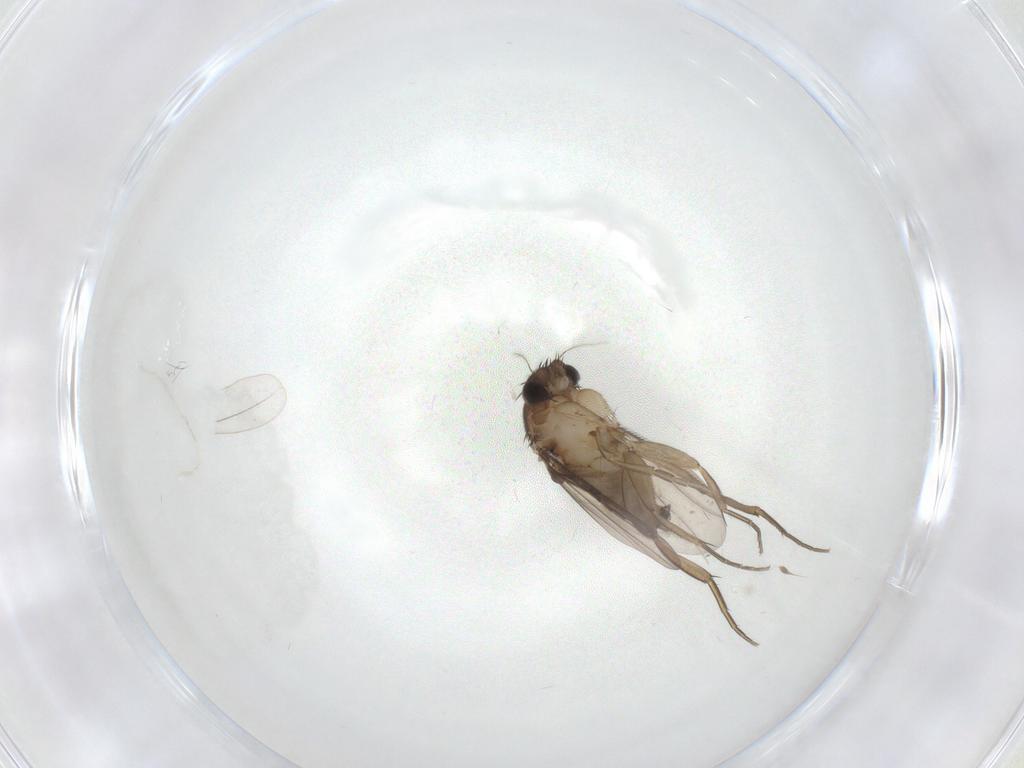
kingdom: Animalia
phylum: Arthropoda
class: Insecta
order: Diptera
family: Phoridae
